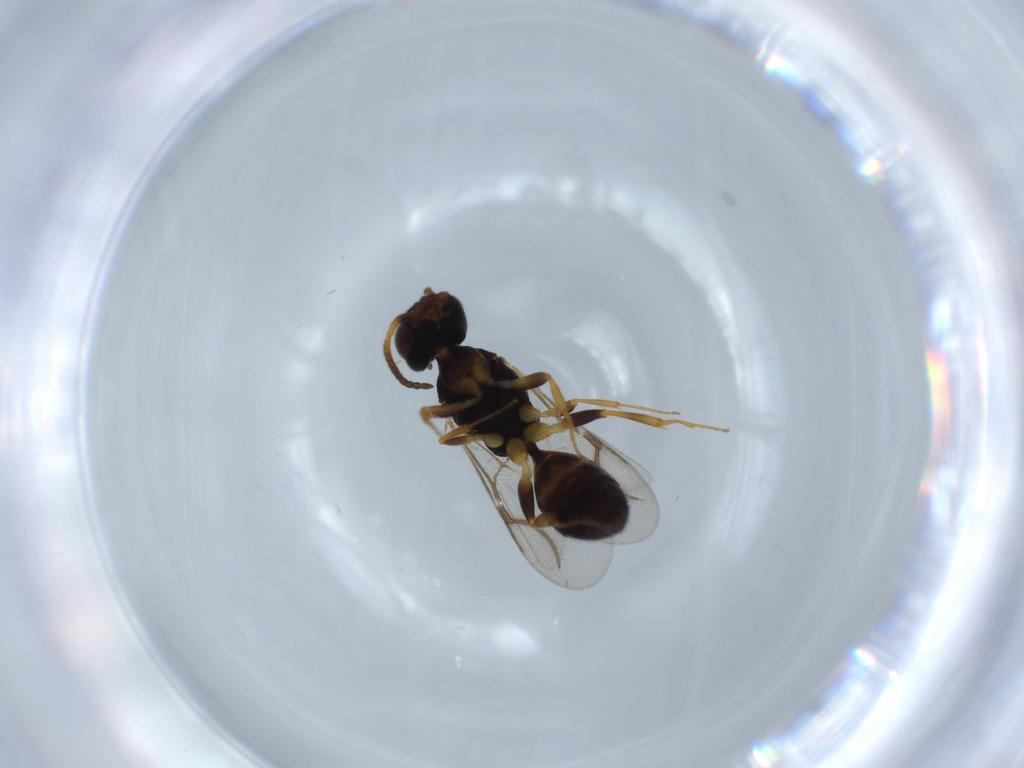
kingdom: Animalia
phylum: Arthropoda
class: Insecta
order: Hymenoptera
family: Bethylidae
